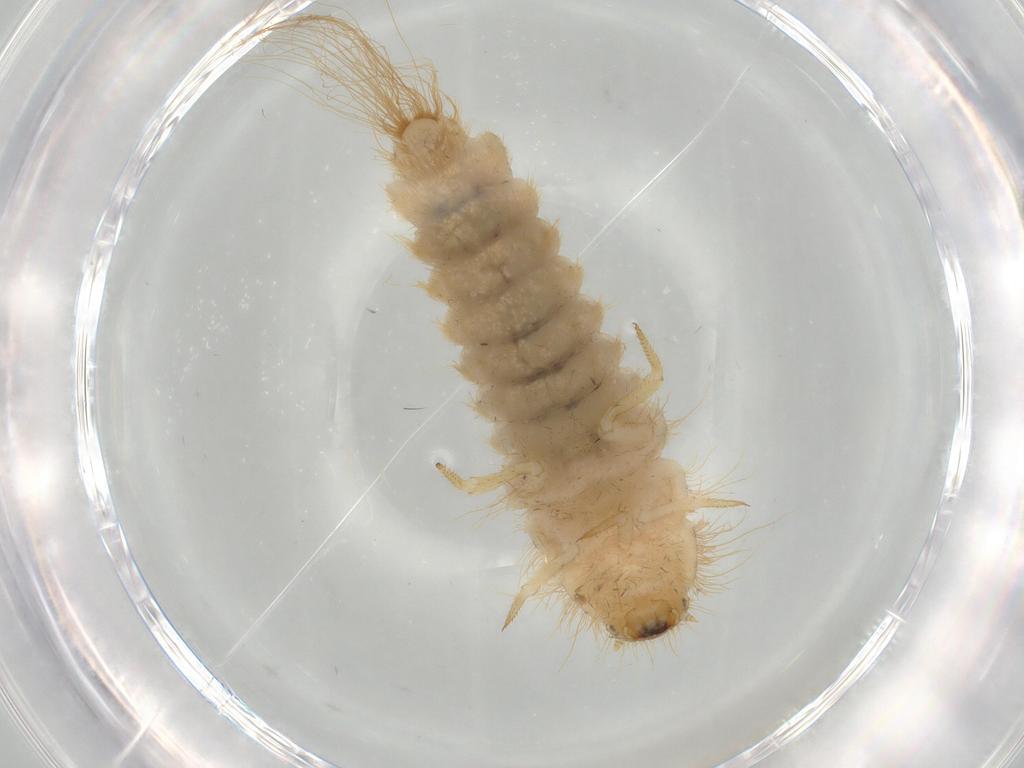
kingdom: Animalia
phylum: Arthropoda
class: Insecta
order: Coleoptera
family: Dermestidae
